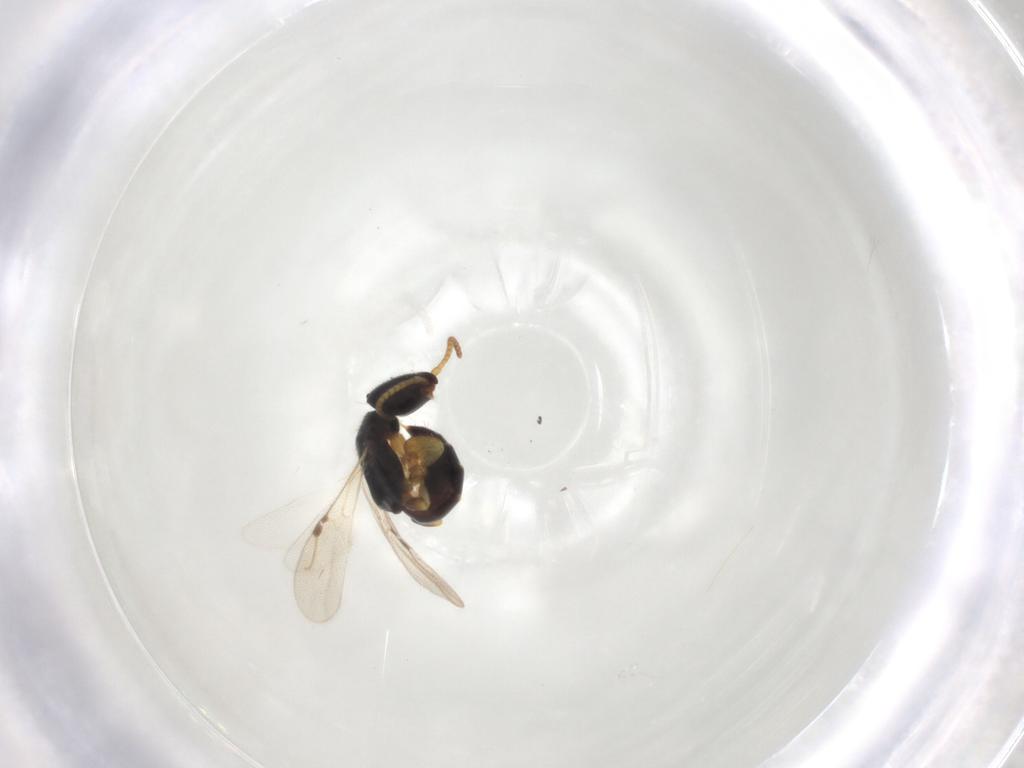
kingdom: Animalia
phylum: Arthropoda
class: Insecta
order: Hymenoptera
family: Bethylidae
